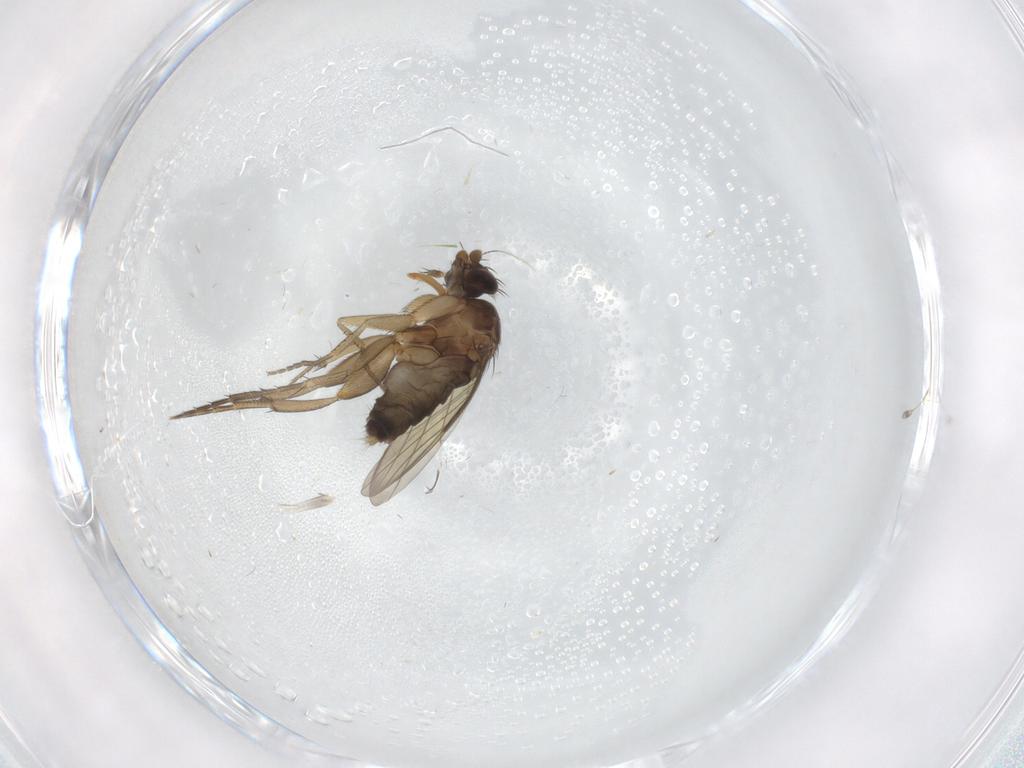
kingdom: Animalia
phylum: Arthropoda
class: Insecta
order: Diptera
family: Phoridae
